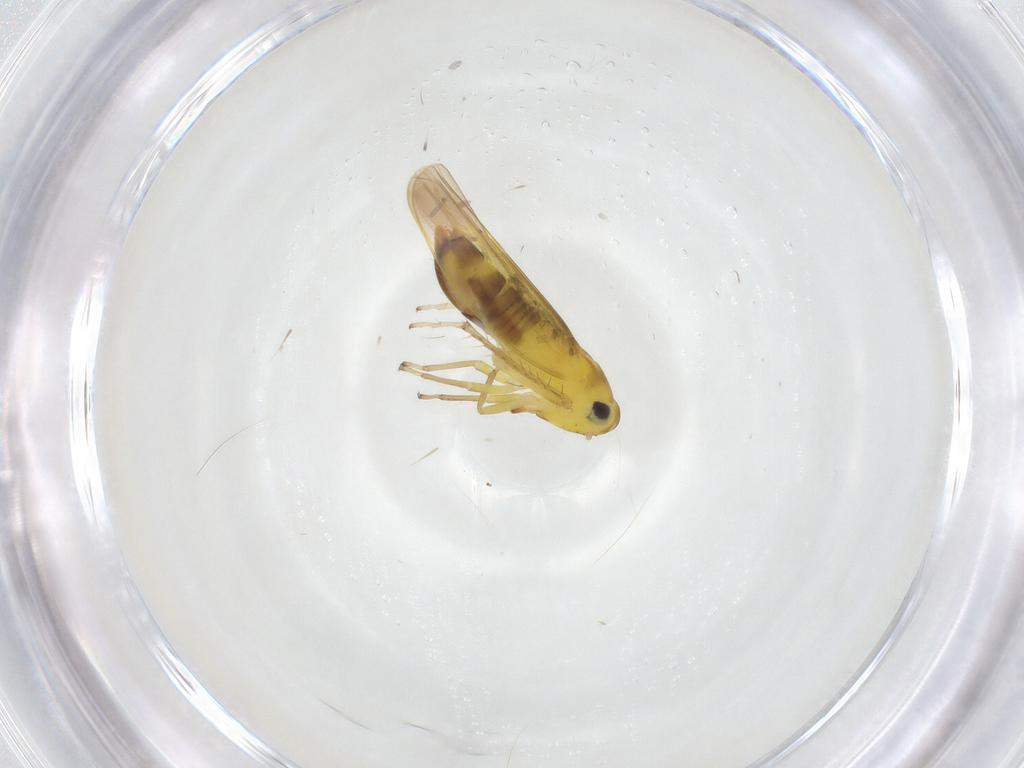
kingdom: Animalia
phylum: Arthropoda
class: Insecta
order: Hemiptera
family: Cicadellidae
